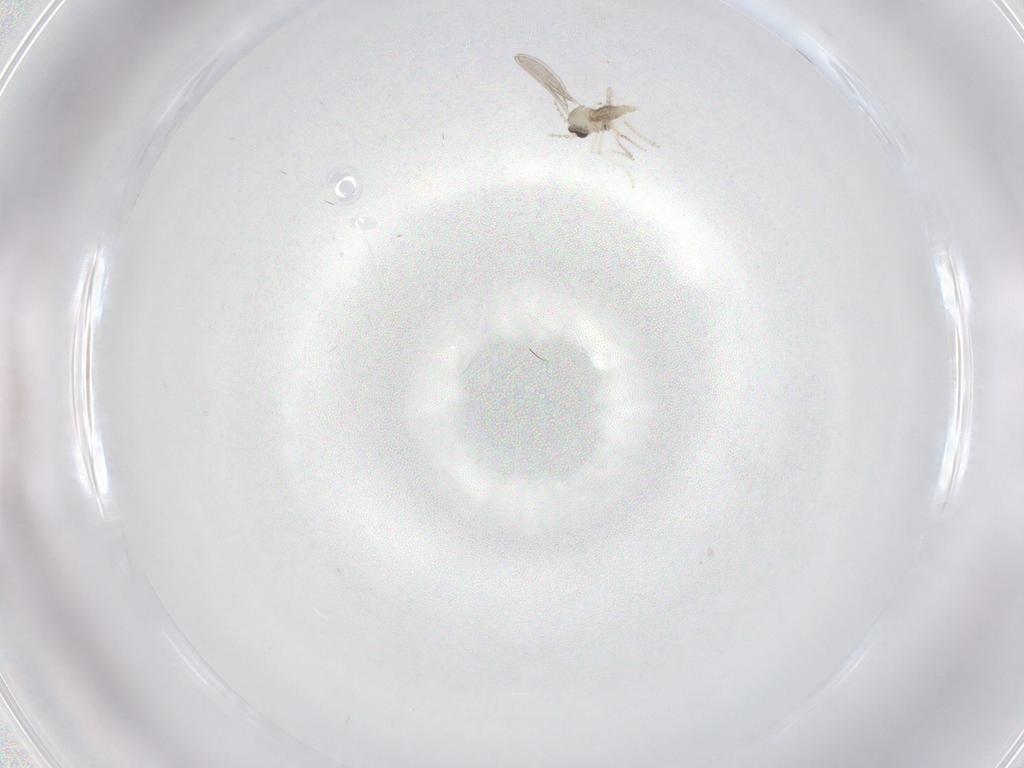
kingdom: Animalia
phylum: Arthropoda
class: Insecta
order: Diptera
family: Cecidomyiidae
